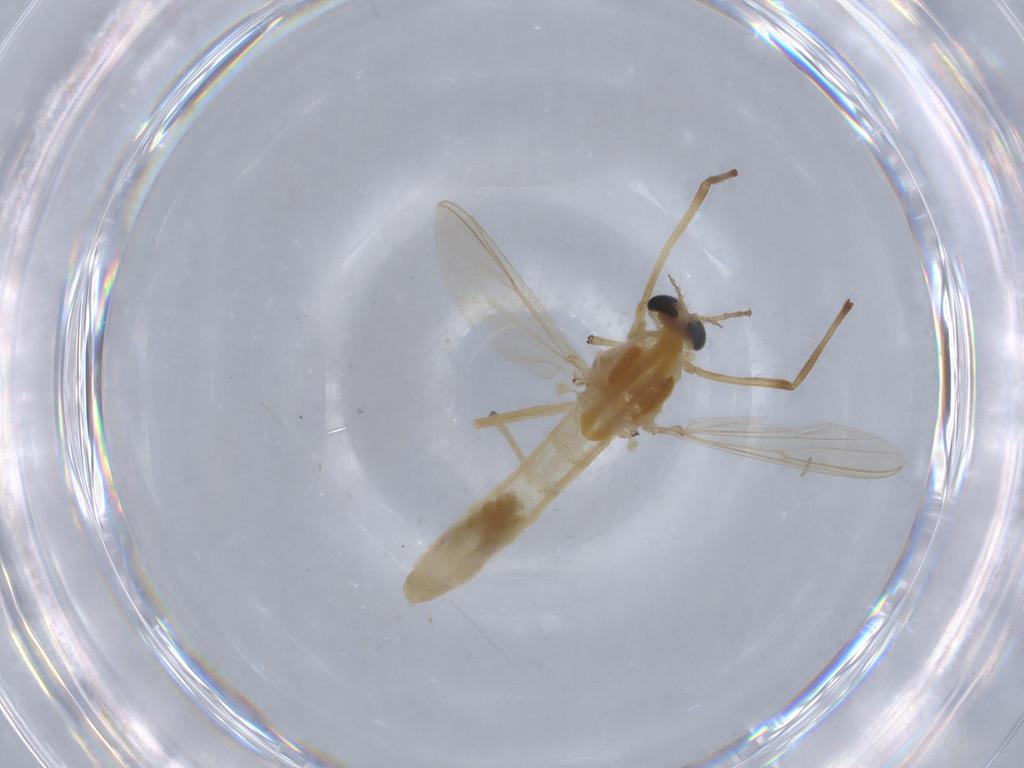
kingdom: Animalia
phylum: Arthropoda
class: Insecta
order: Diptera
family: Chironomidae
